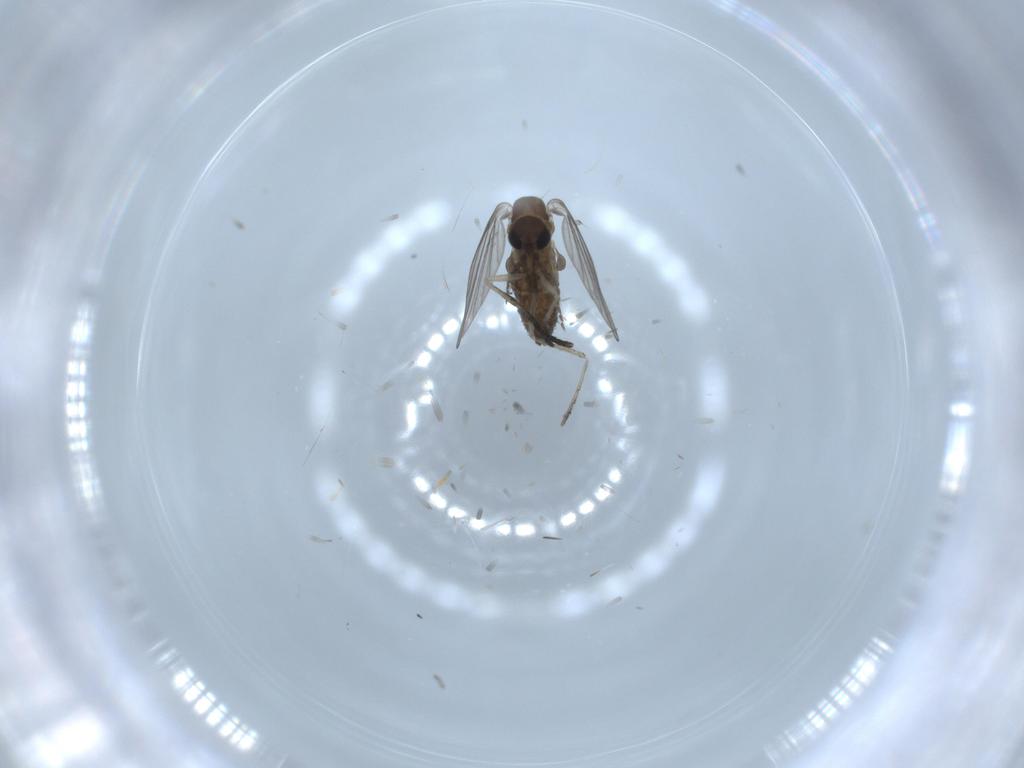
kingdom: Animalia
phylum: Arthropoda
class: Insecta
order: Diptera
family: Psychodidae
